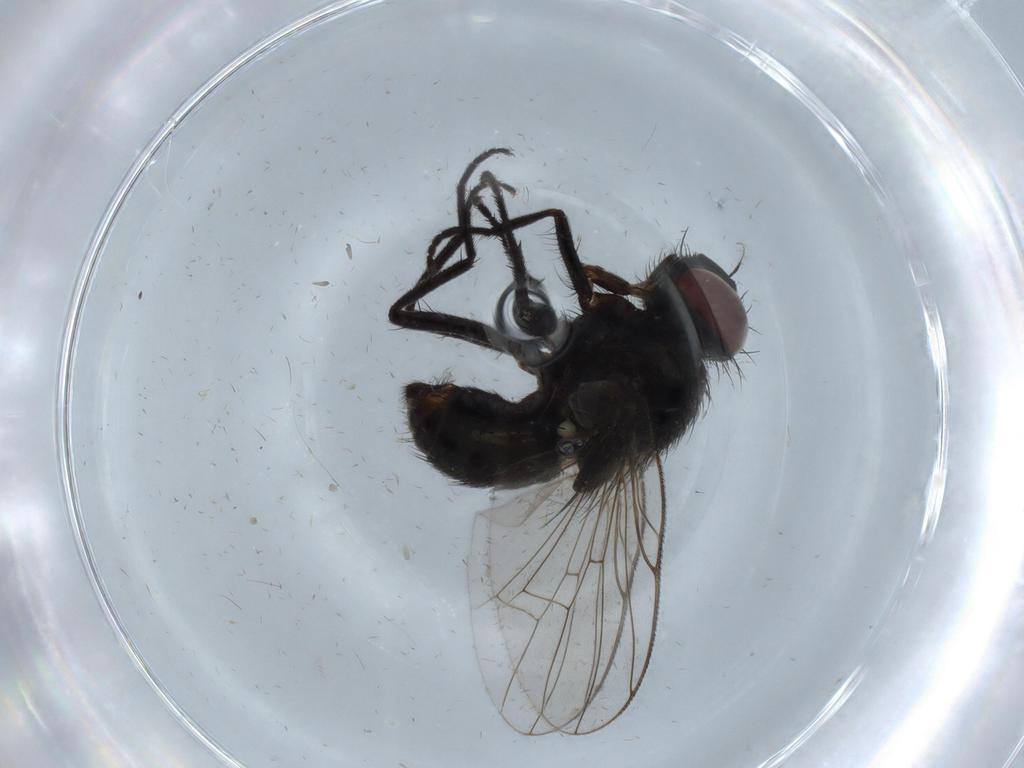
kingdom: Animalia
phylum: Arthropoda
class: Insecta
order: Diptera
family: Muscidae
